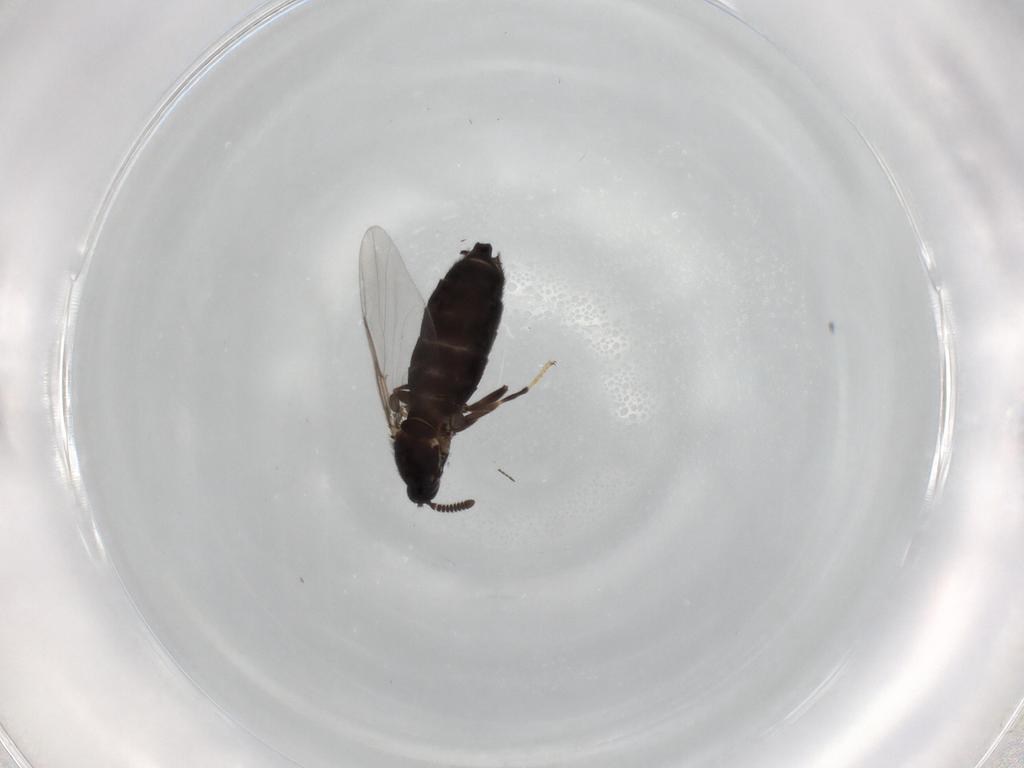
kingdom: Animalia
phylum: Arthropoda
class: Insecta
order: Diptera
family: Scatopsidae
